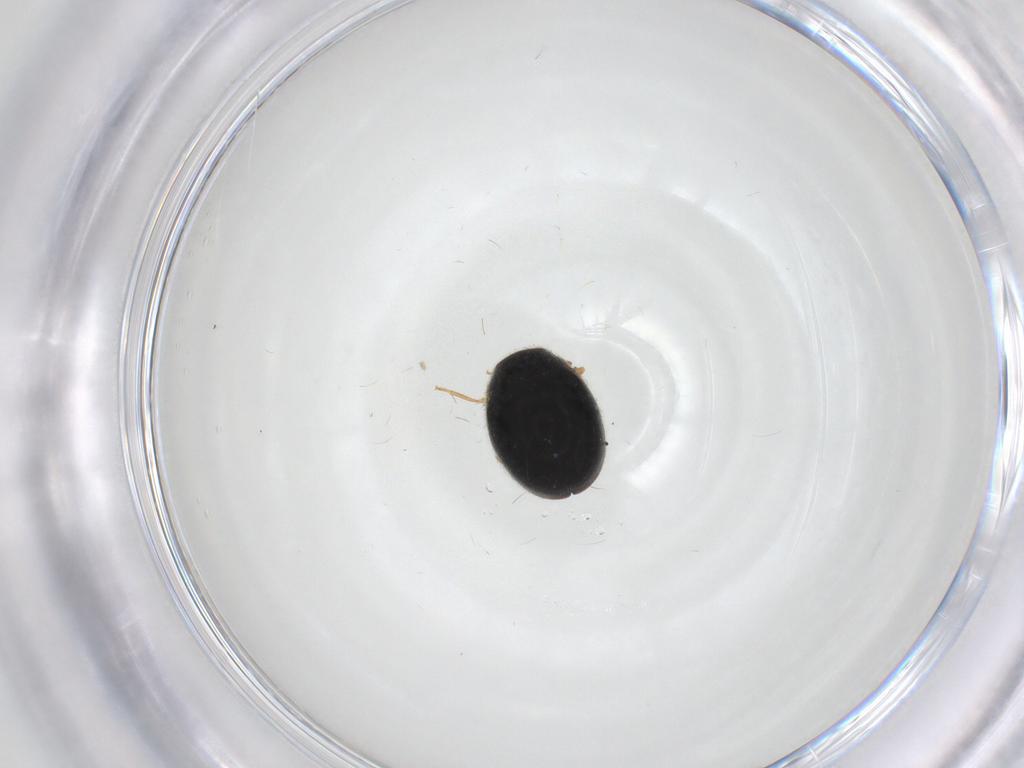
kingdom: Animalia
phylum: Arthropoda
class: Insecta
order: Coleoptera
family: Coccinellidae
